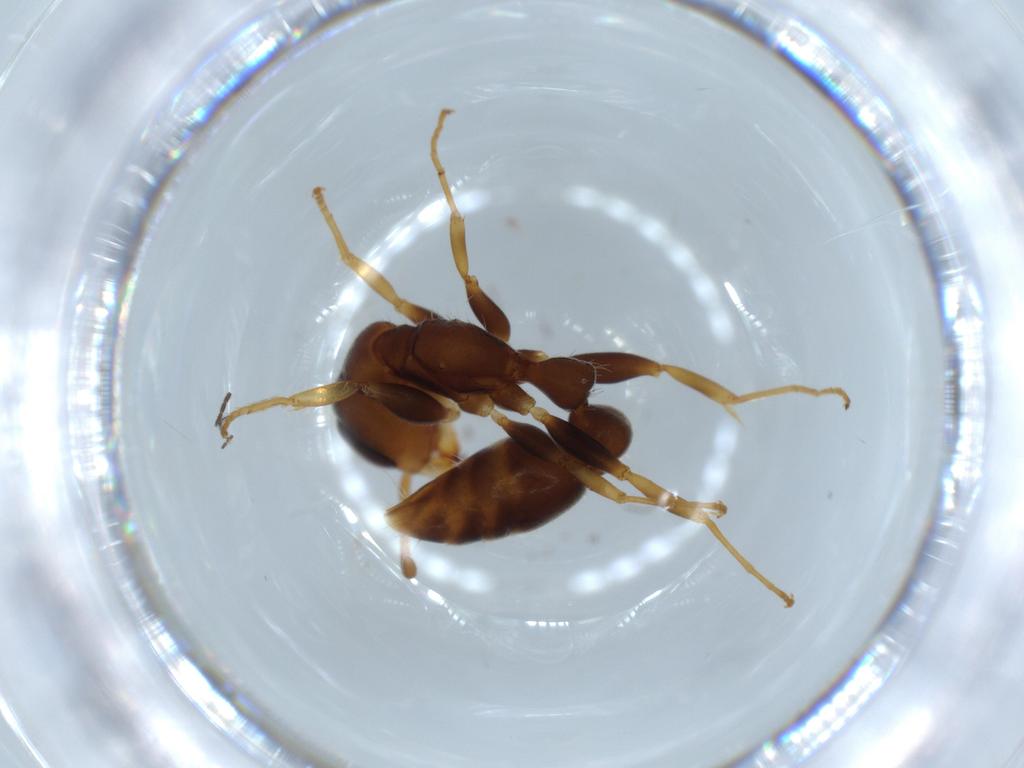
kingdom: Animalia
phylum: Arthropoda
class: Insecta
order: Hymenoptera
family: Formicidae
